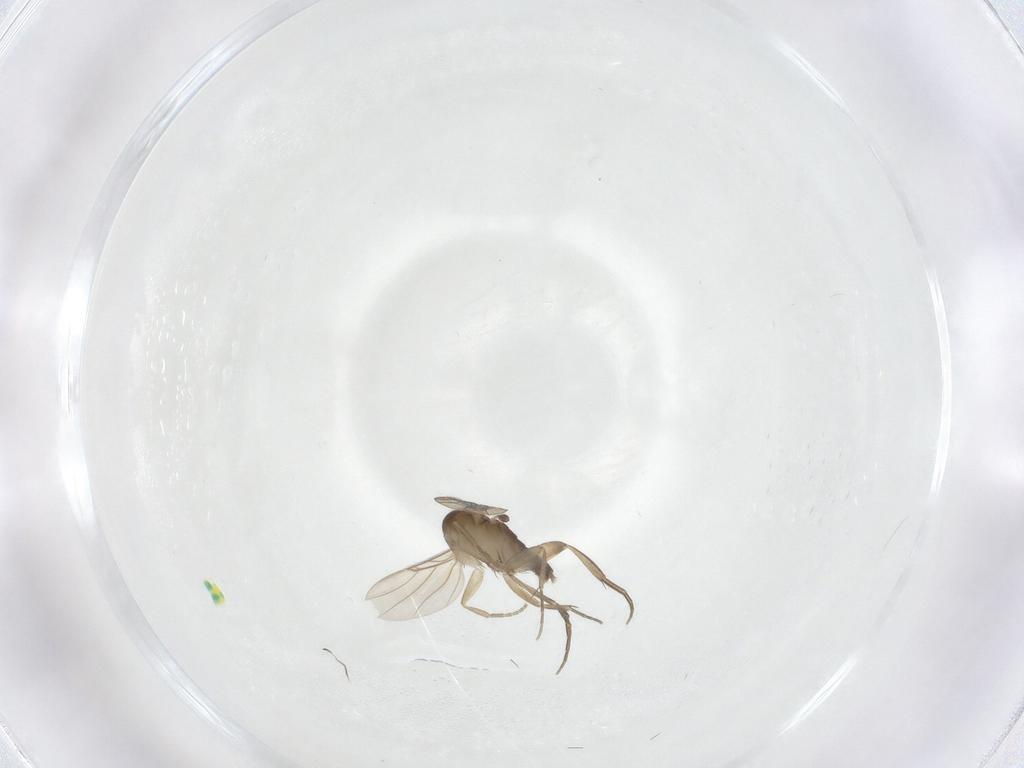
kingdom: Animalia
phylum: Arthropoda
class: Insecta
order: Diptera
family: Phoridae
